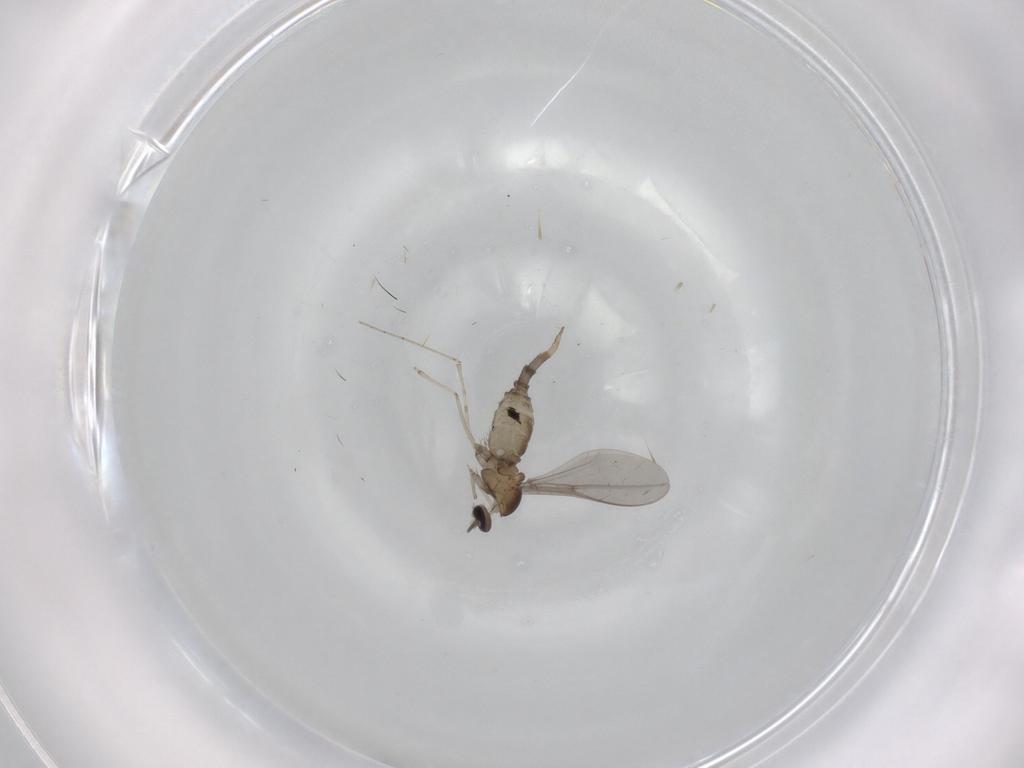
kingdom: Animalia
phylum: Arthropoda
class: Insecta
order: Diptera
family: Cecidomyiidae
